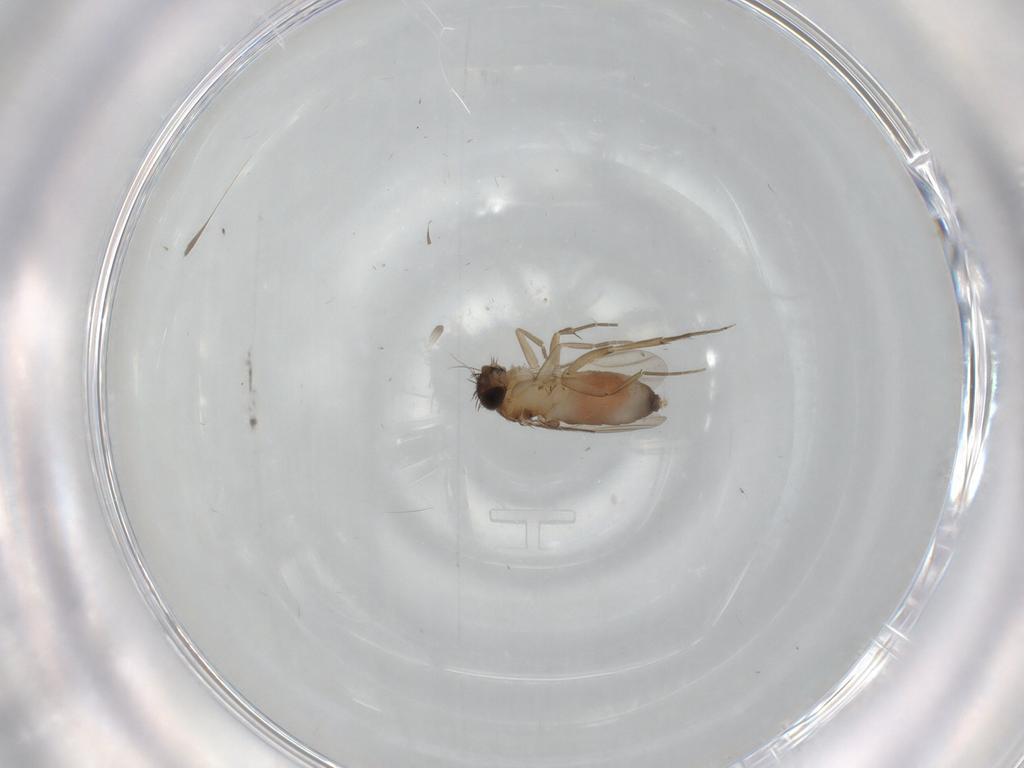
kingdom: Animalia
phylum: Arthropoda
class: Insecta
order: Diptera
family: Phoridae
